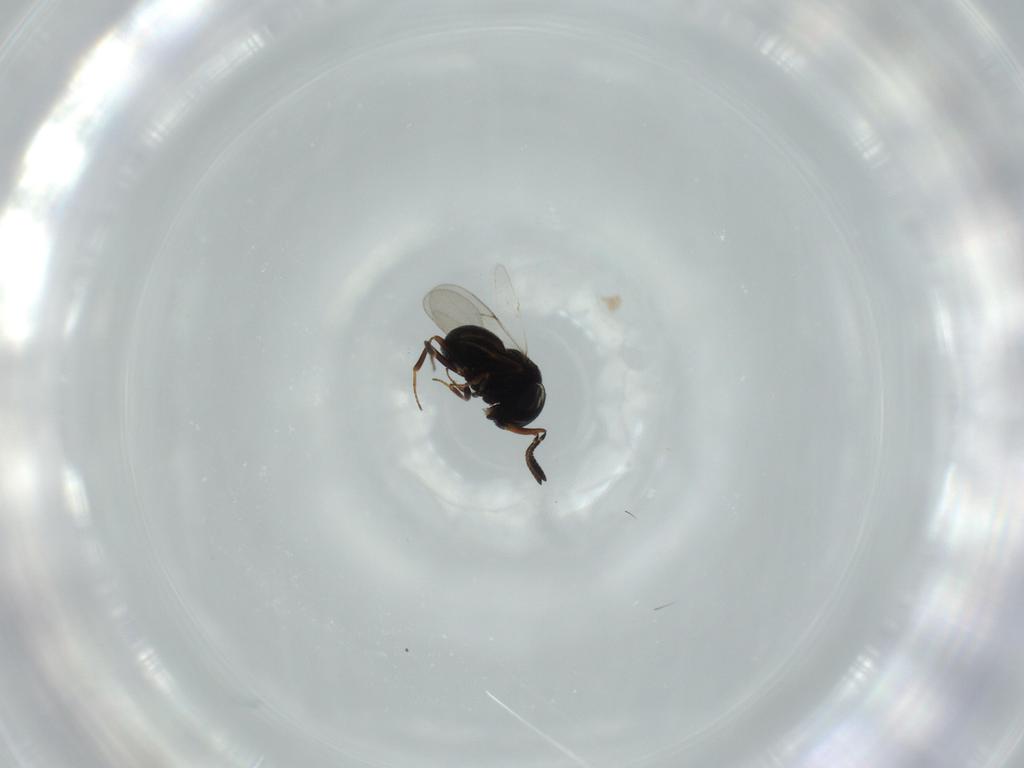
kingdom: Animalia
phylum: Arthropoda
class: Insecta
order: Hymenoptera
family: Scelionidae
